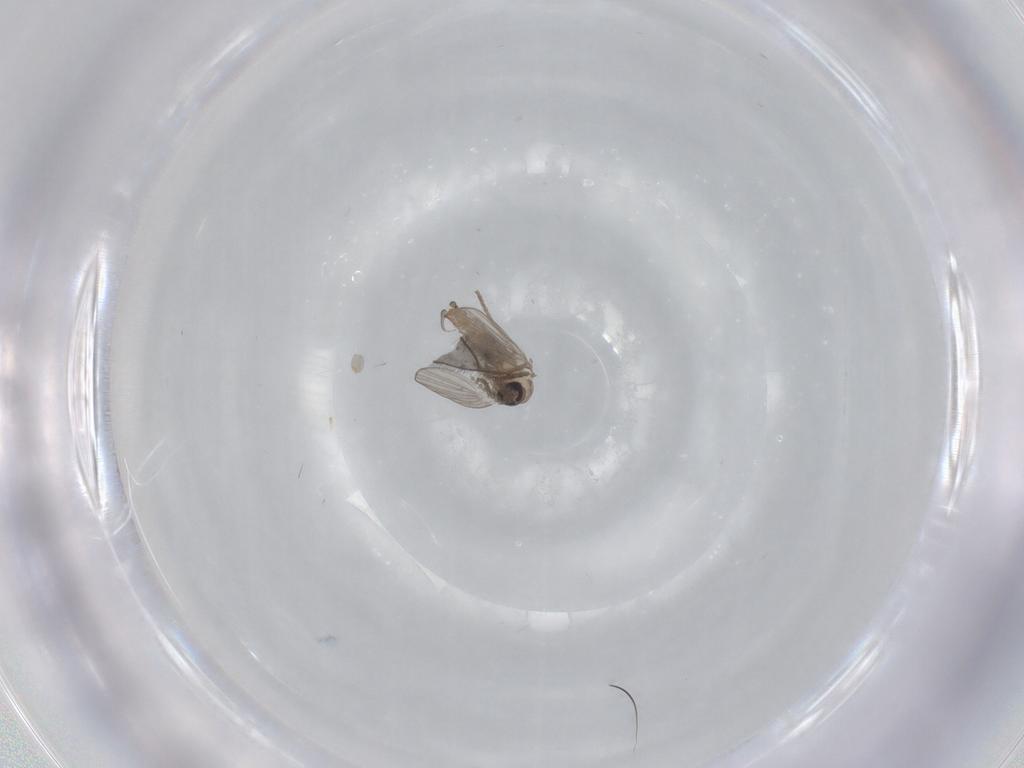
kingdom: Animalia
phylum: Arthropoda
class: Insecta
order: Diptera
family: Psychodidae
